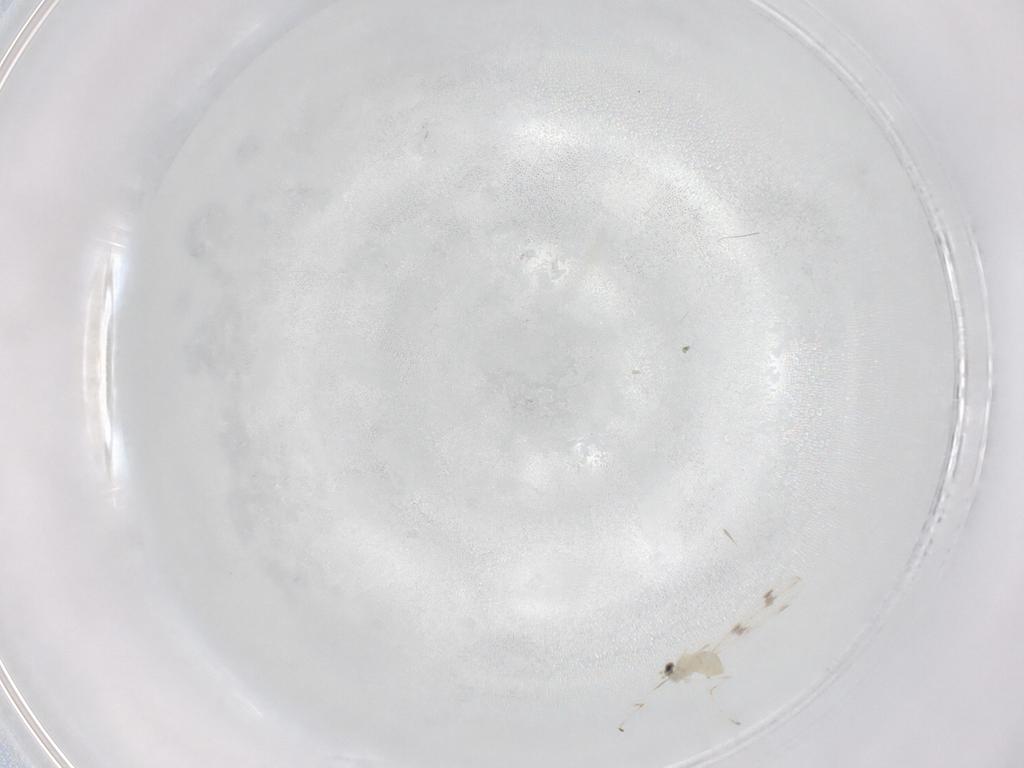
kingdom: Animalia
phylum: Arthropoda
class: Insecta
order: Diptera
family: Cecidomyiidae
